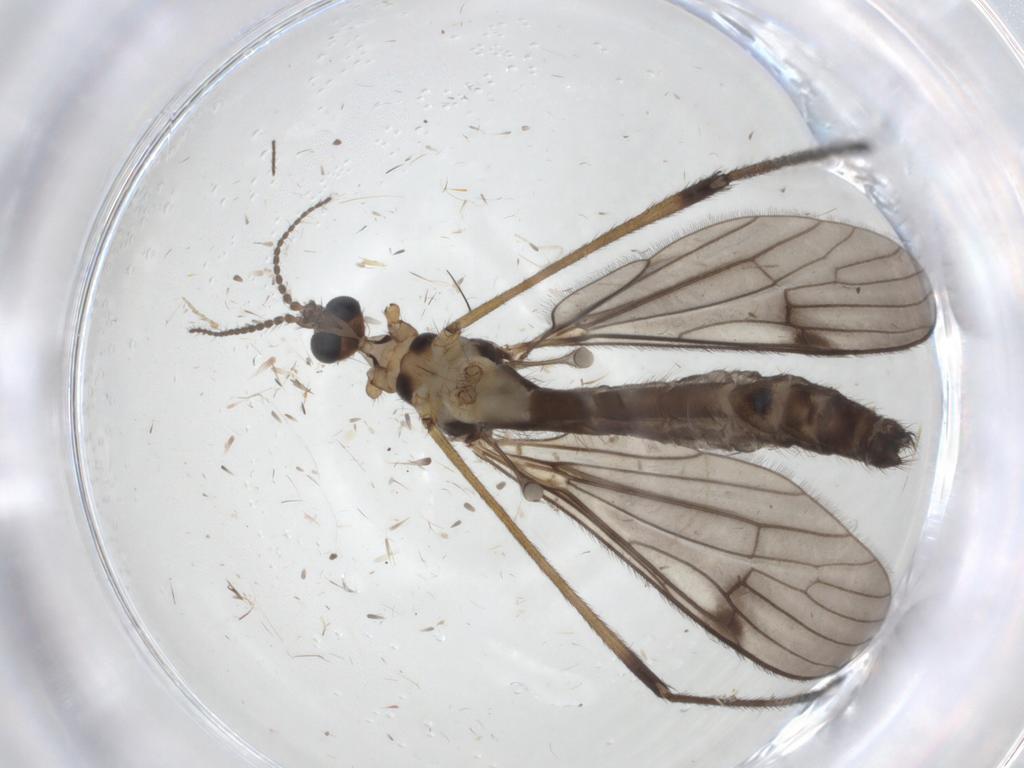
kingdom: Animalia
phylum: Arthropoda
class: Insecta
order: Diptera
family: Limoniidae
